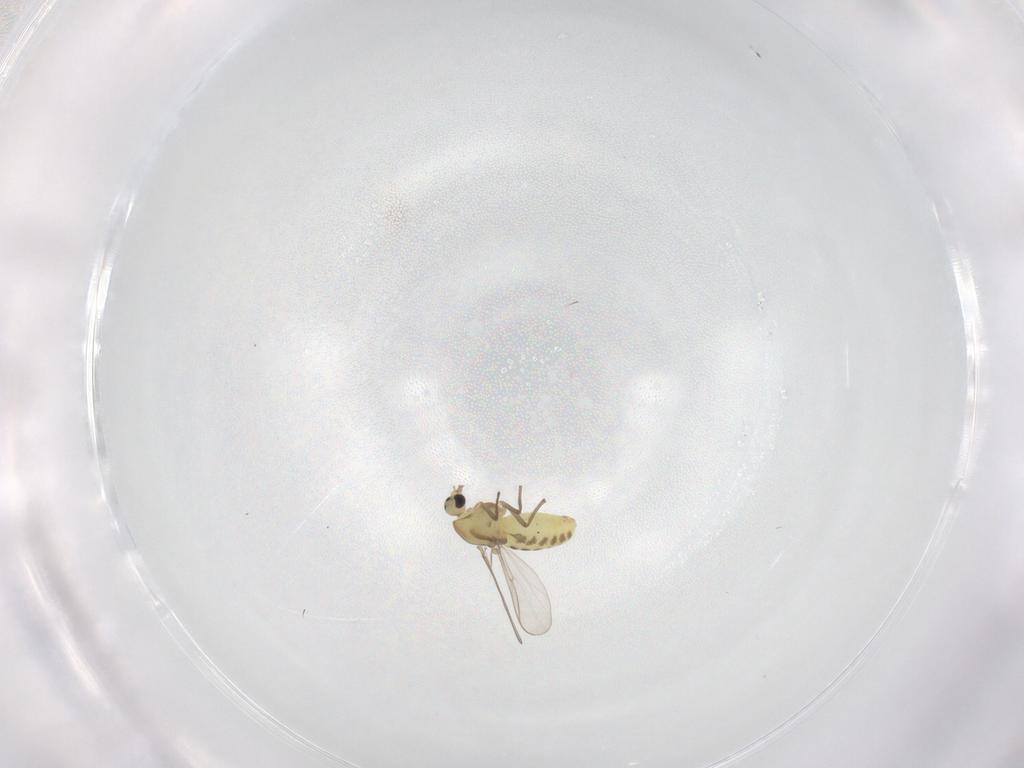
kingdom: Animalia
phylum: Arthropoda
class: Insecta
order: Diptera
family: Chironomidae
